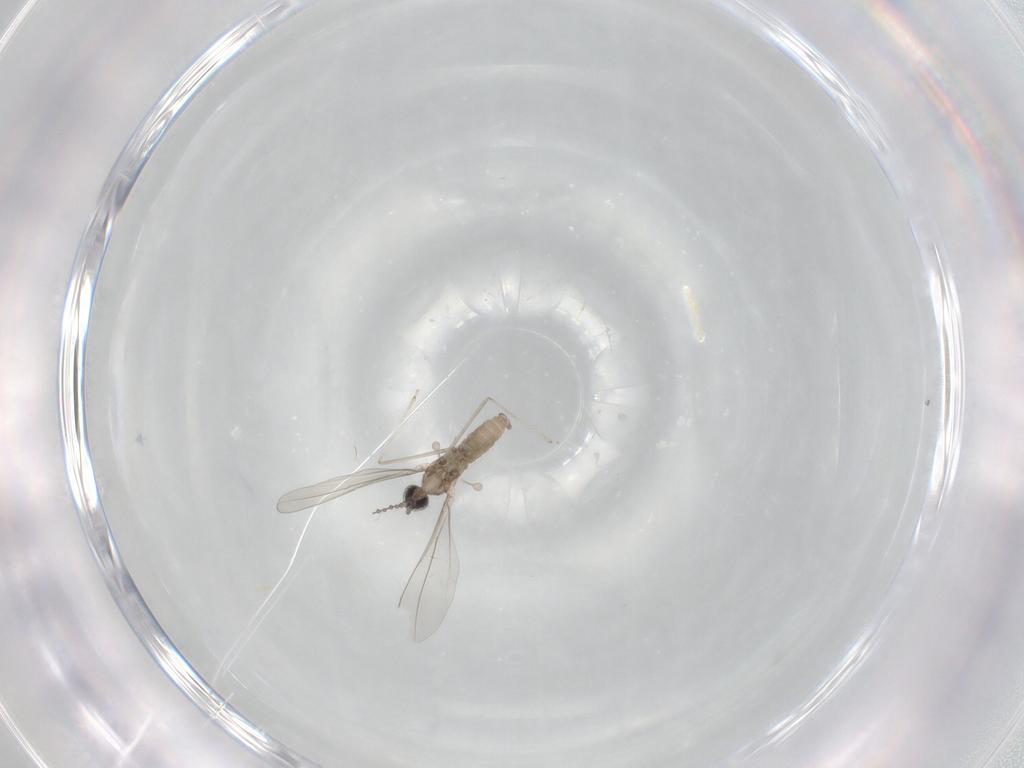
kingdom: Animalia
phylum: Arthropoda
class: Insecta
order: Diptera
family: Cecidomyiidae
